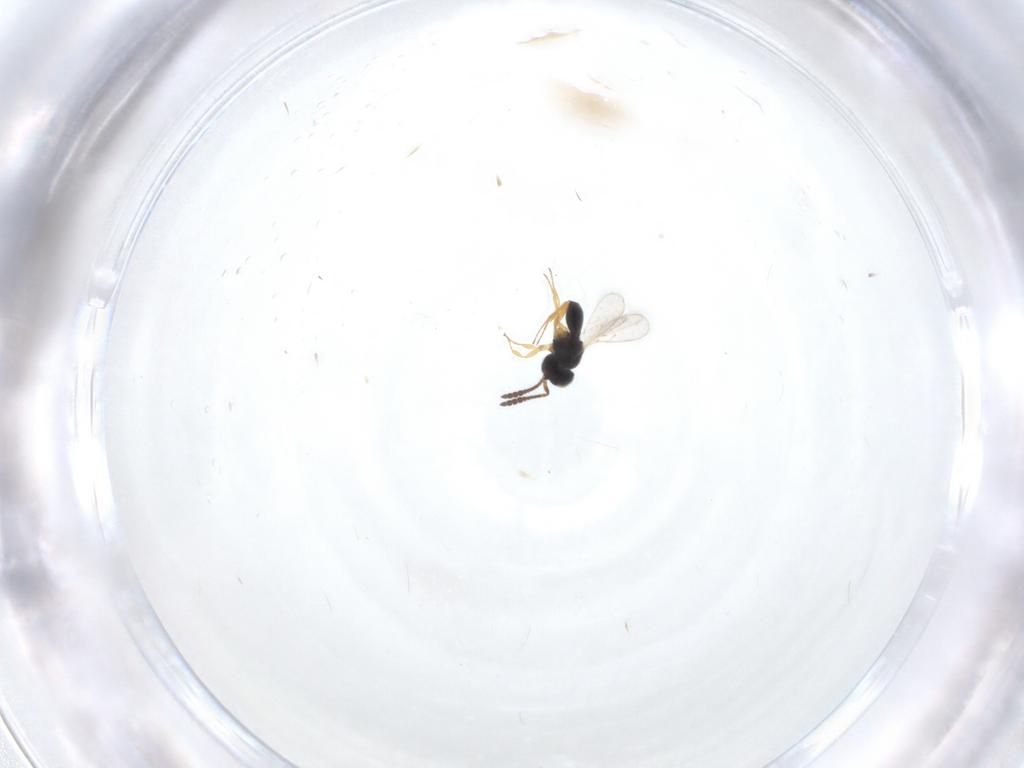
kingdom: Animalia
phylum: Arthropoda
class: Insecta
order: Hymenoptera
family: Scelionidae
